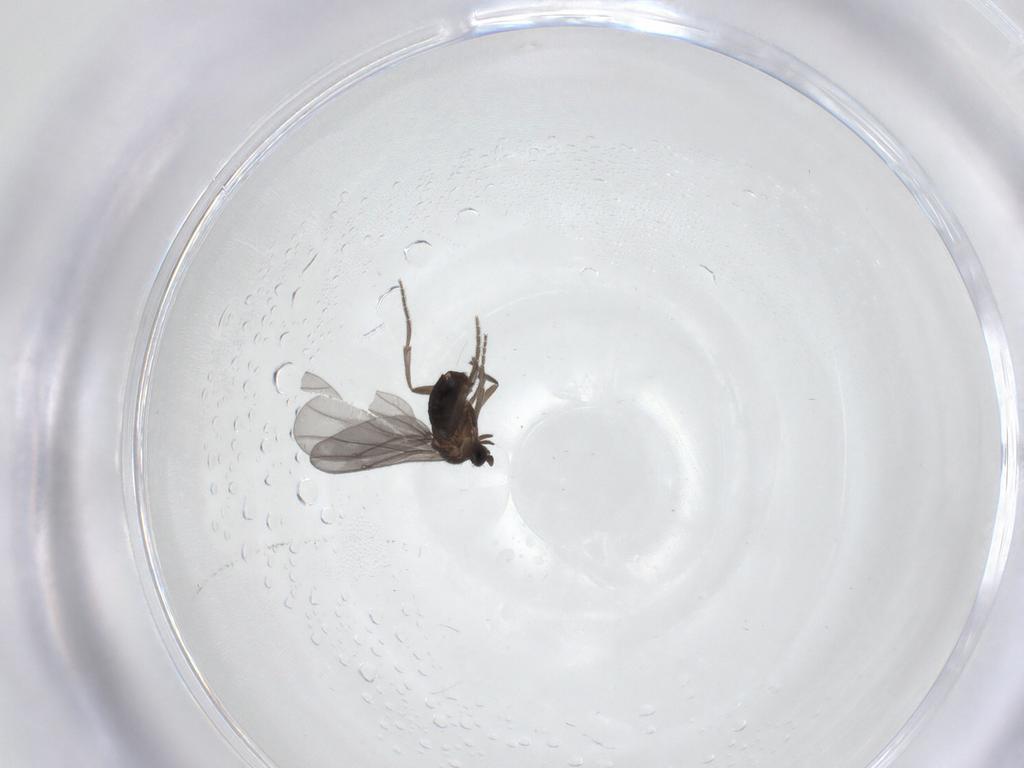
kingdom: Animalia
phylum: Arthropoda
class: Insecta
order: Diptera
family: Phoridae
